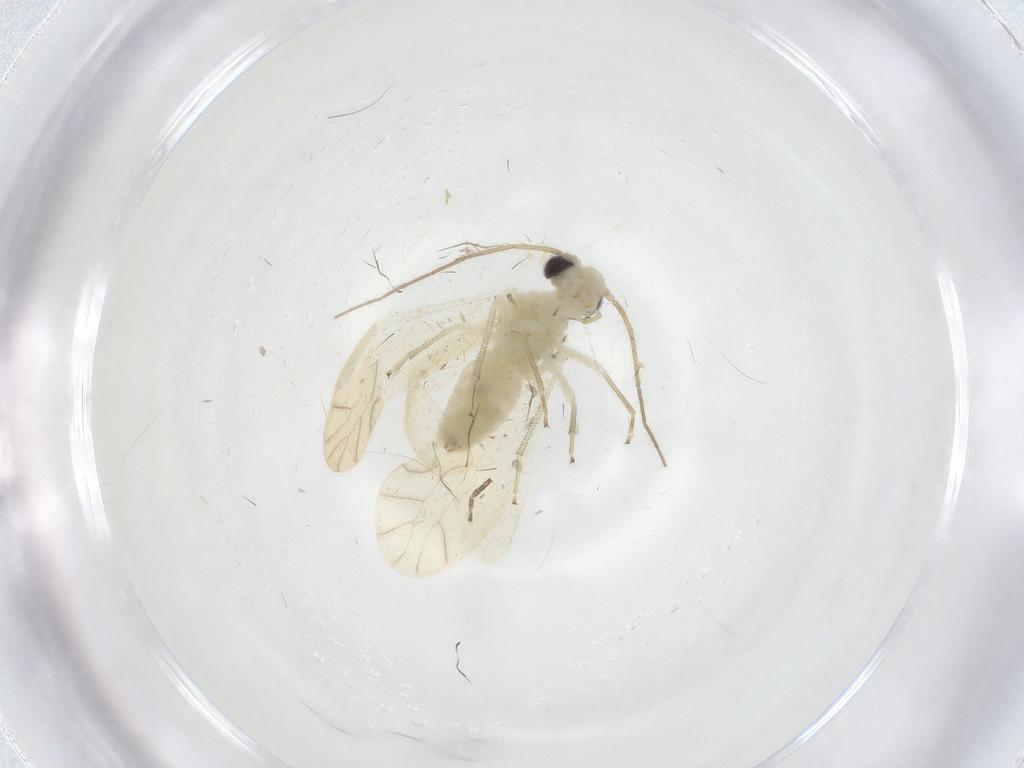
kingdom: Animalia
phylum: Arthropoda
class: Insecta
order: Psocodea
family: Caeciliusidae
